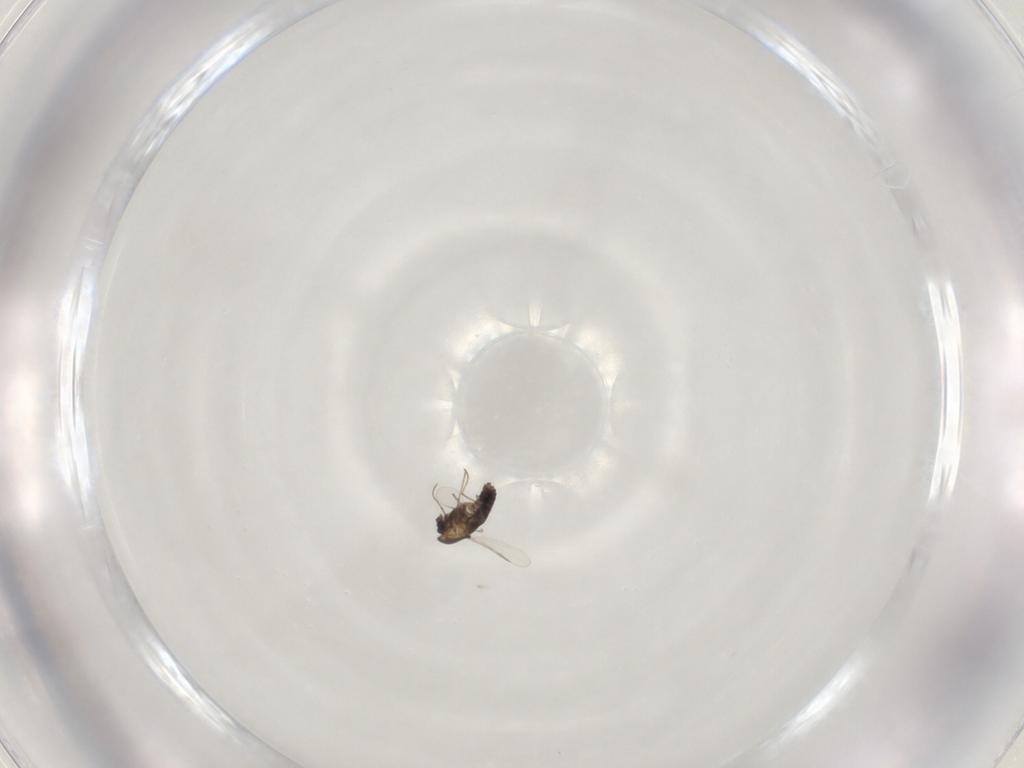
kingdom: Animalia
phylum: Arthropoda
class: Insecta
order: Diptera
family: Chironomidae
